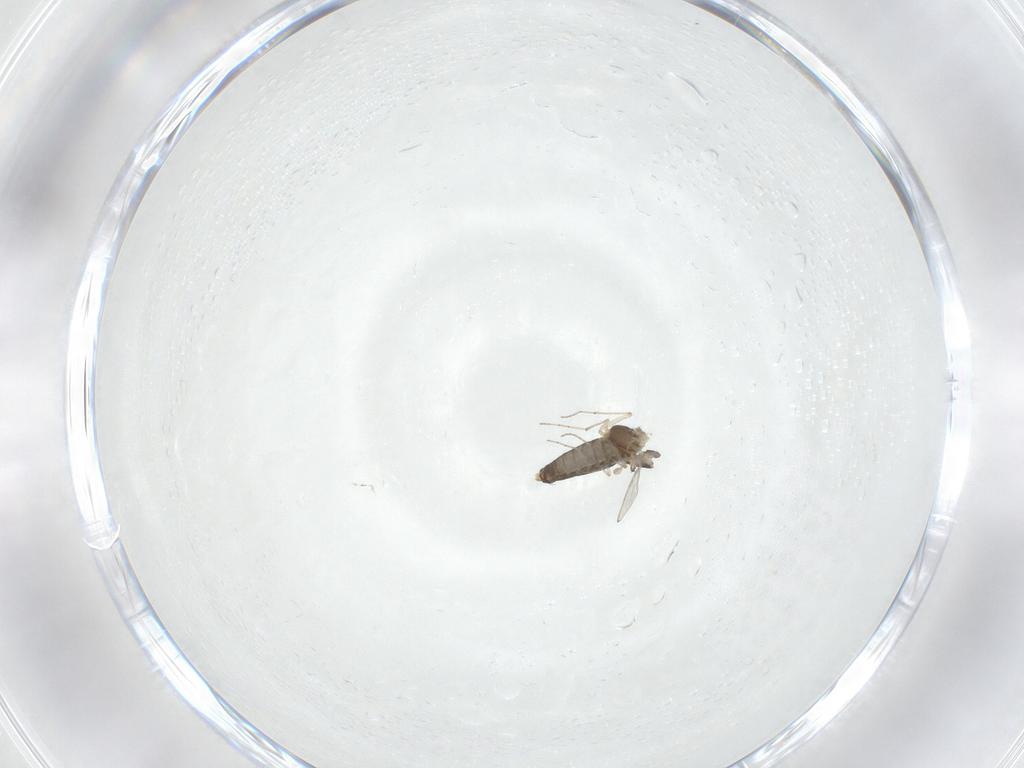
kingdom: Animalia
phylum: Arthropoda
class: Insecta
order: Diptera
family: Chironomidae
